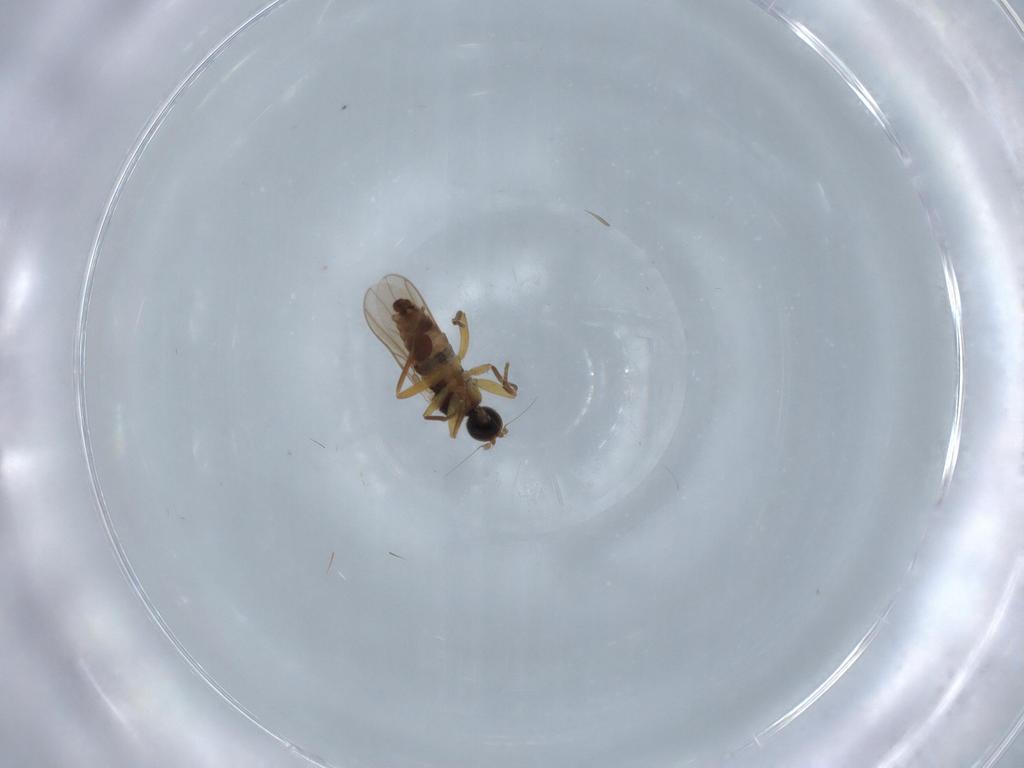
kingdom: Animalia
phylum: Arthropoda
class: Insecta
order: Diptera
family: Hybotidae
